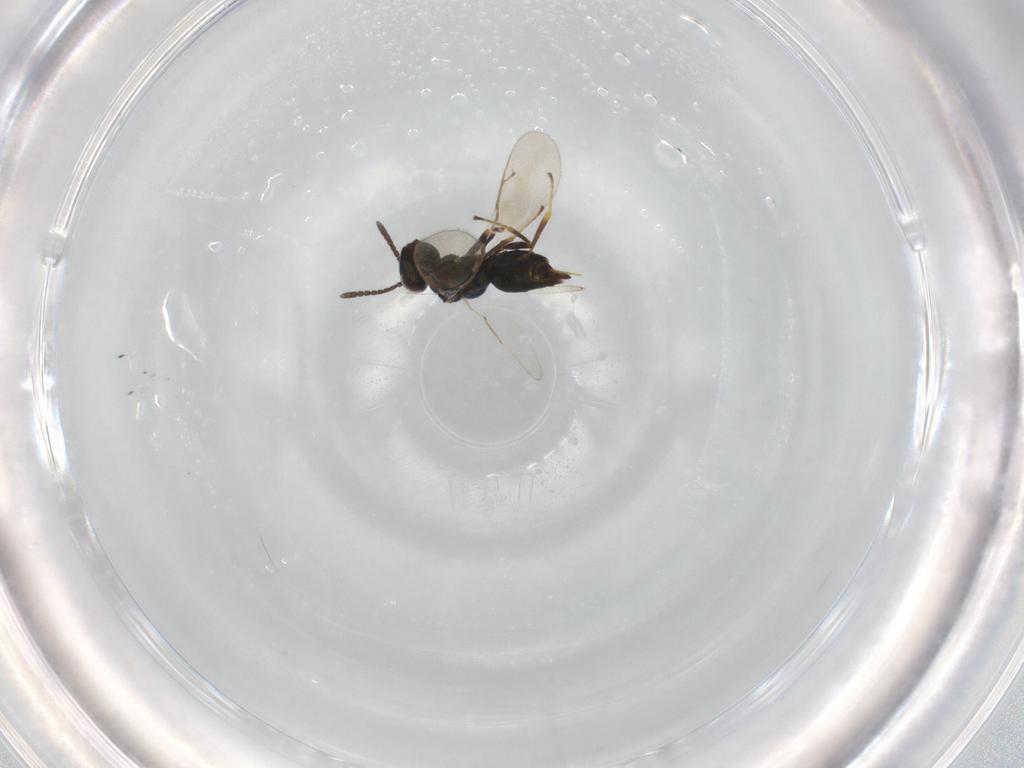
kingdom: Animalia
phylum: Arthropoda
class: Insecta
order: Hymenoptera
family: Pteromalidae
